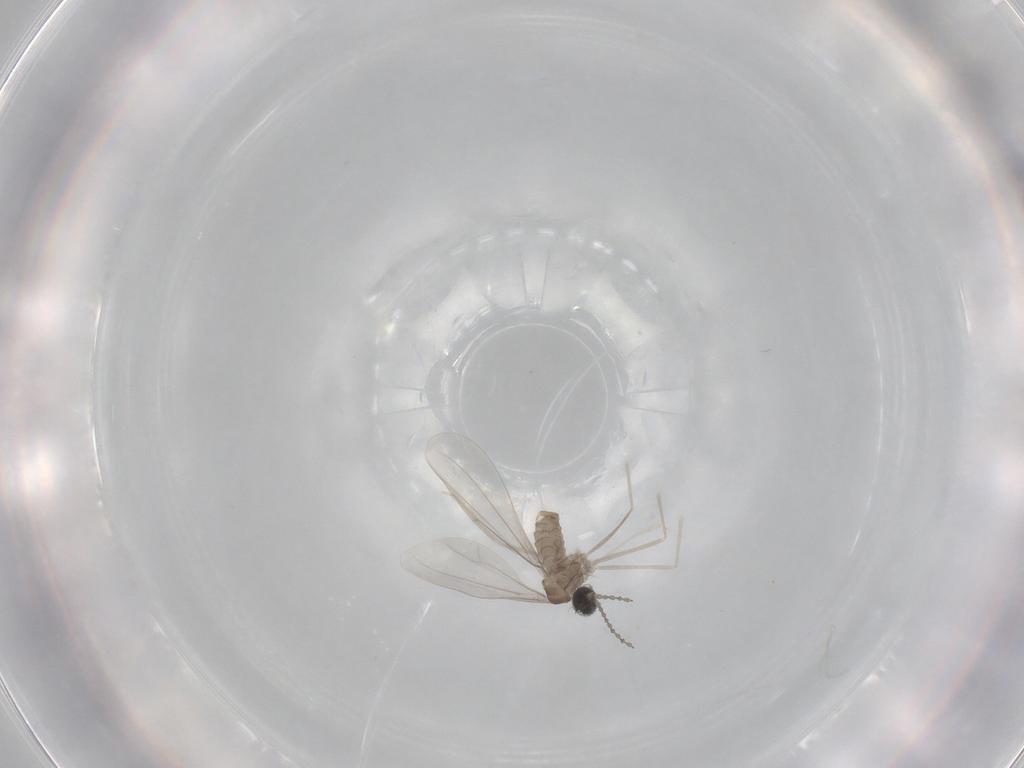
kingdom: Animalia
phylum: Arthropoda
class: Insecta
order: Diptera
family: Cecidomyiidae
